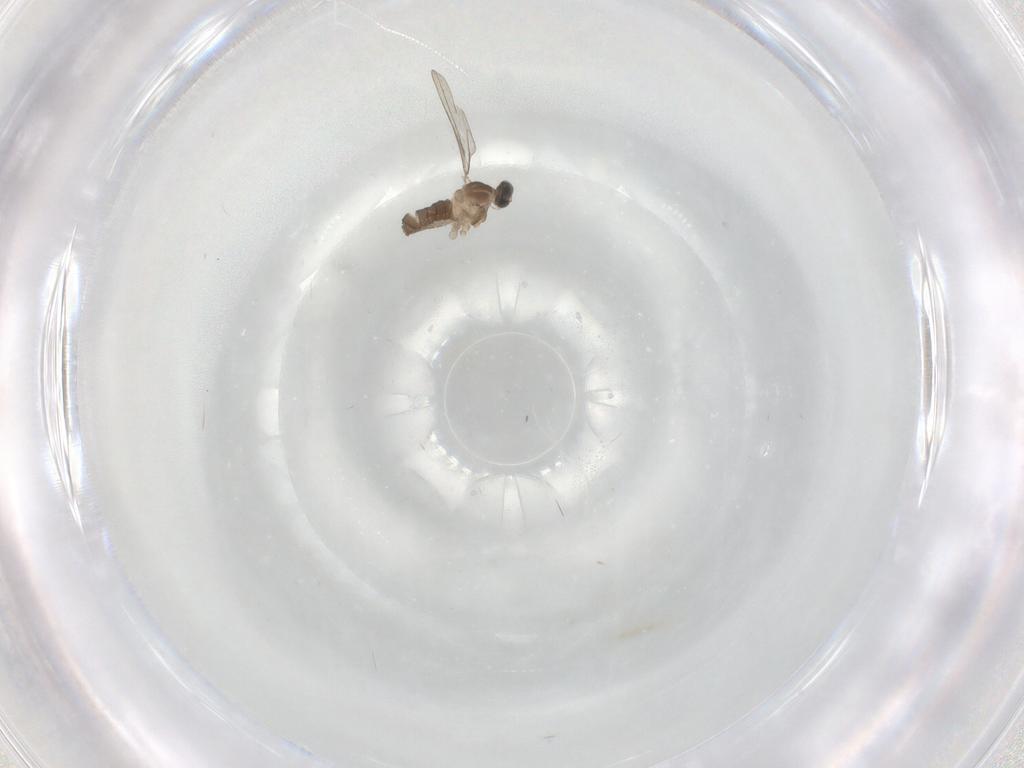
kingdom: Animalia
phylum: Arthropoda
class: Insecta
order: Diptera
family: Cecidomyiidae
